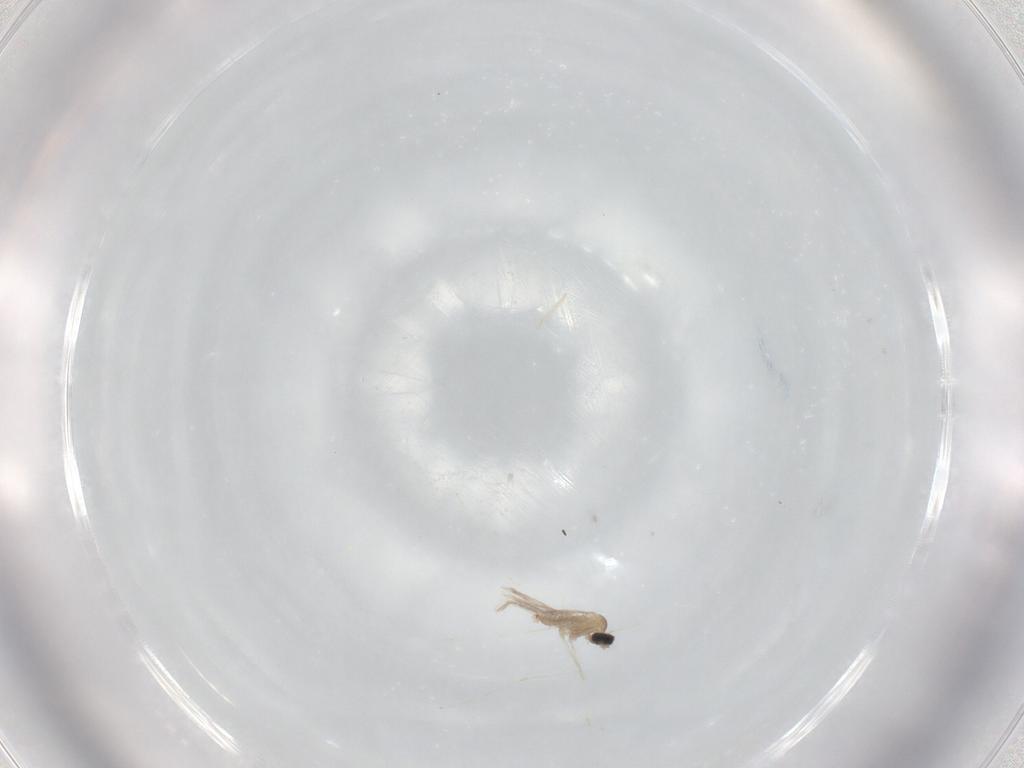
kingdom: Animalia
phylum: Arthropoda
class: Insecta
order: Diptera
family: Cecidomyiidae
